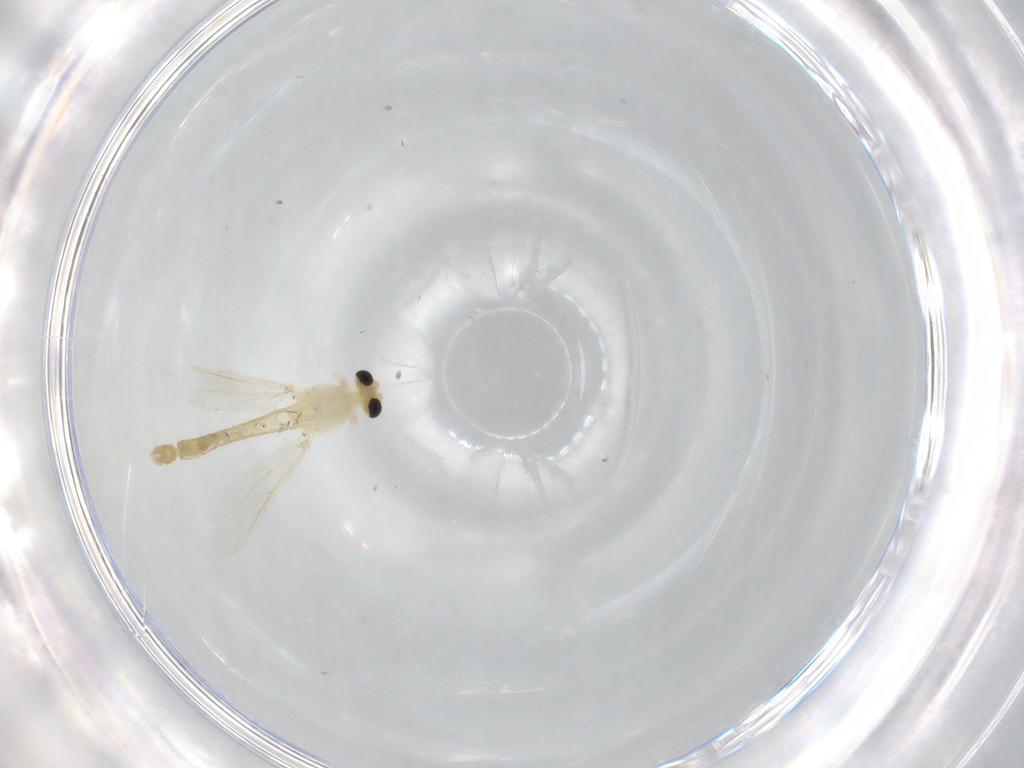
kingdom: Animalia
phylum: Arthropoda
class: Insecta
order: Diptera
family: Chironomidae
